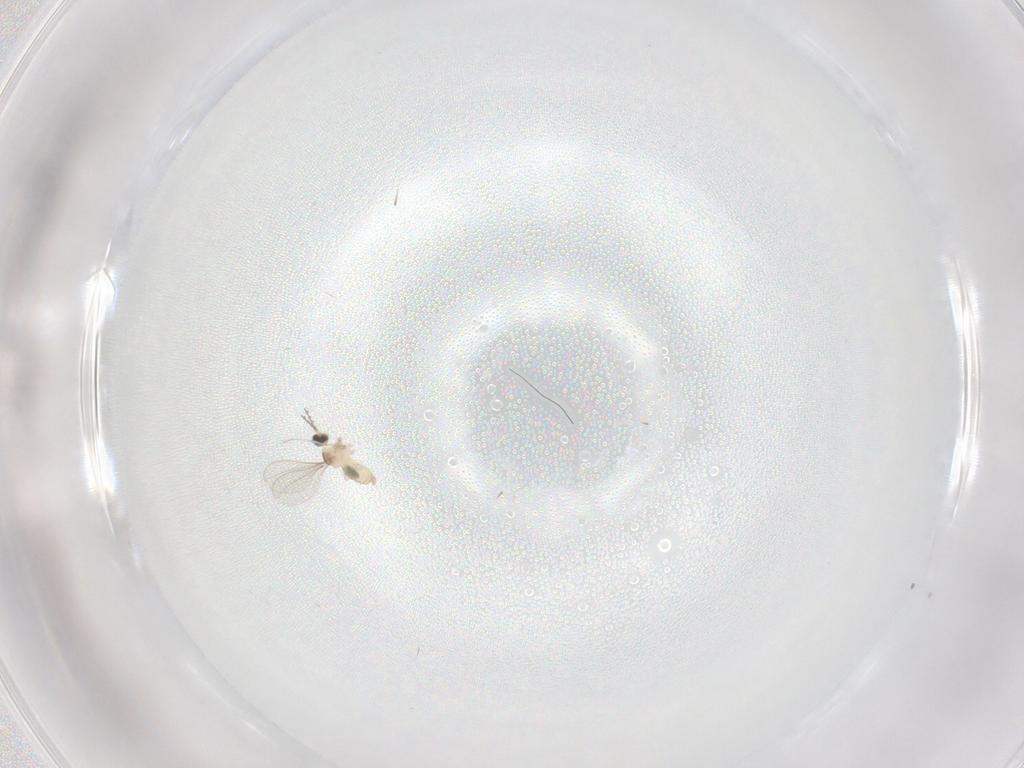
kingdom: Animalia
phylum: Arthropoda
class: Insecta
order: Diptera
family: Cecidomyiidae
